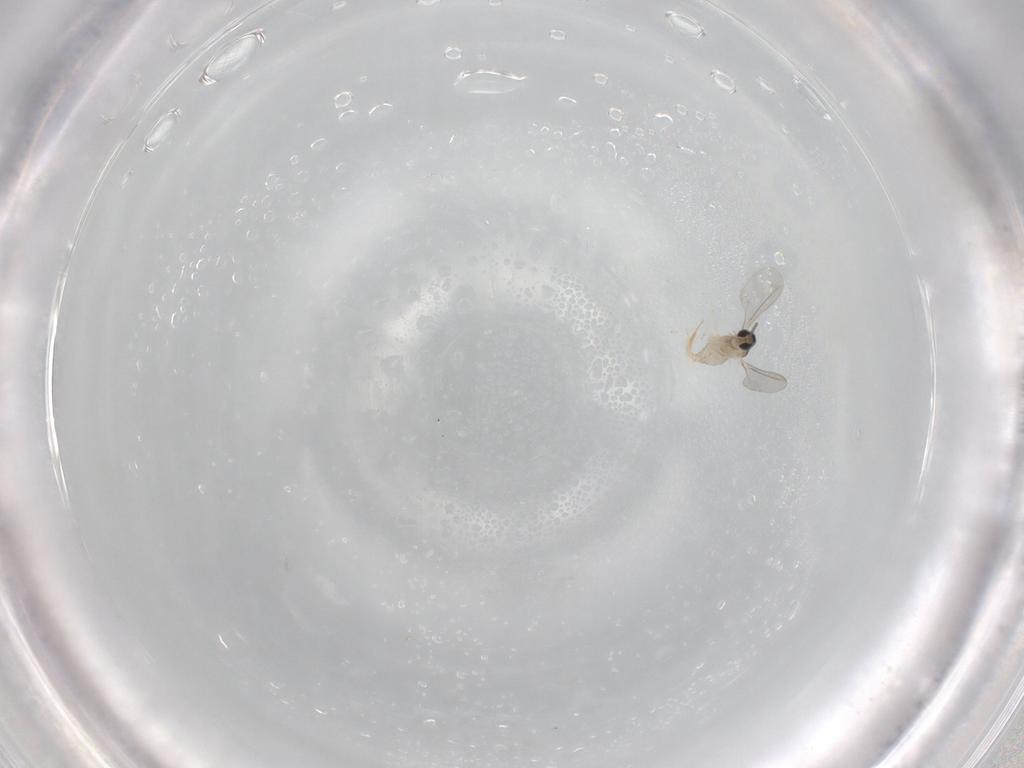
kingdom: Animalia
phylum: Arthropoda
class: Insecta
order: Diptera
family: Cecidomyiidae
